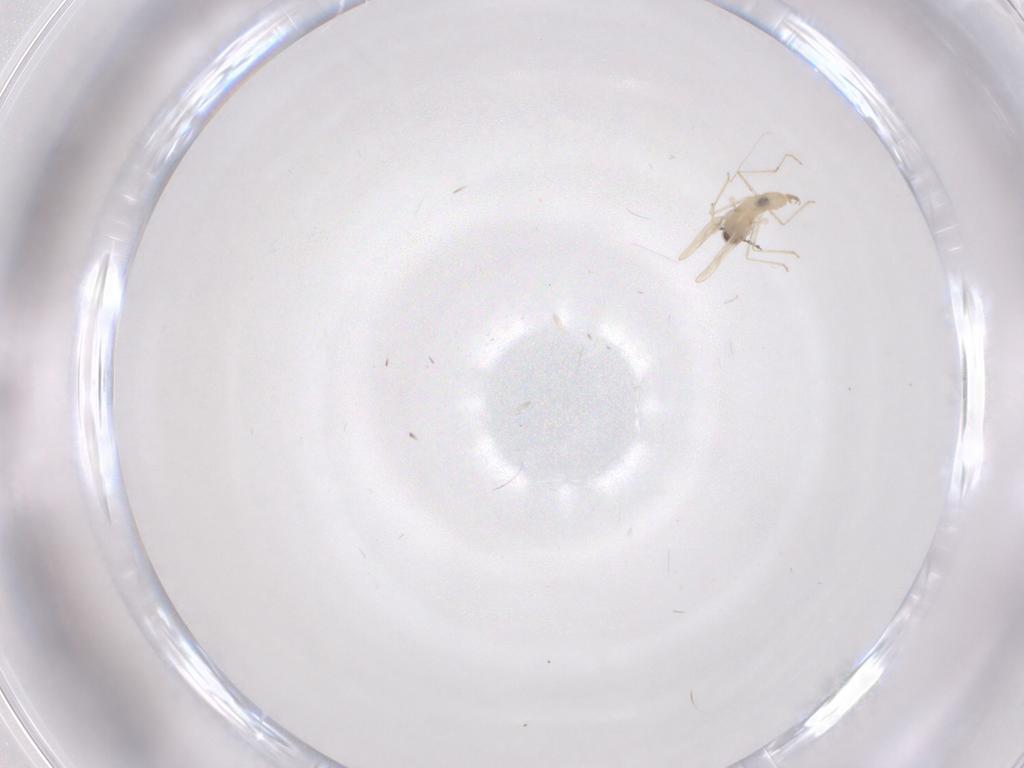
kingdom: Animalia
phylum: Arthropoda
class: Insecta
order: Diptera
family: Cecidomyiidae
